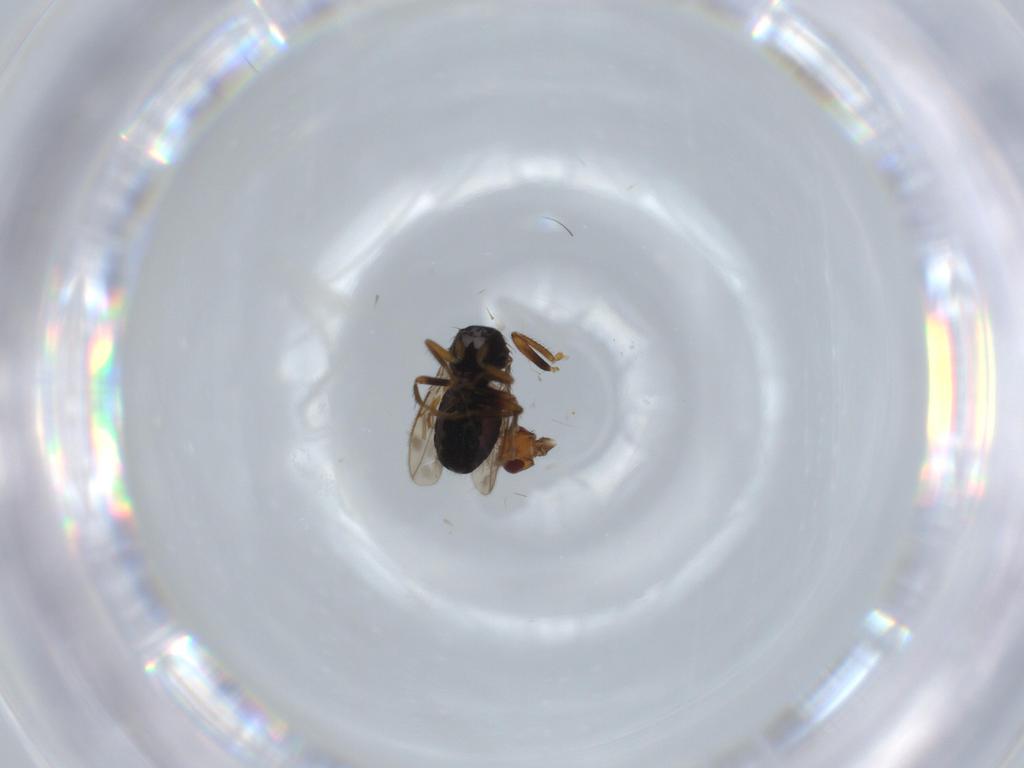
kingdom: Animalia
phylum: Arthropoda
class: Insecta
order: Diptera
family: Sphaeroceridae
